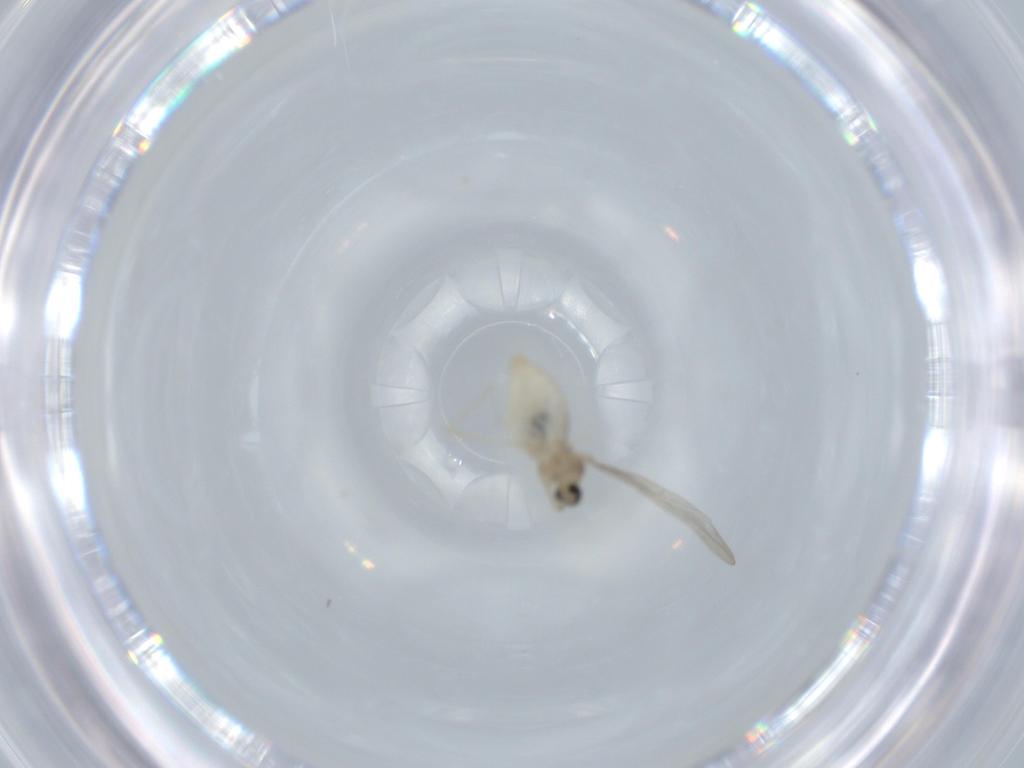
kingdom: Animalia
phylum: Arthropoda
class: Insecta
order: Diptera
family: Cecidomyiidae
